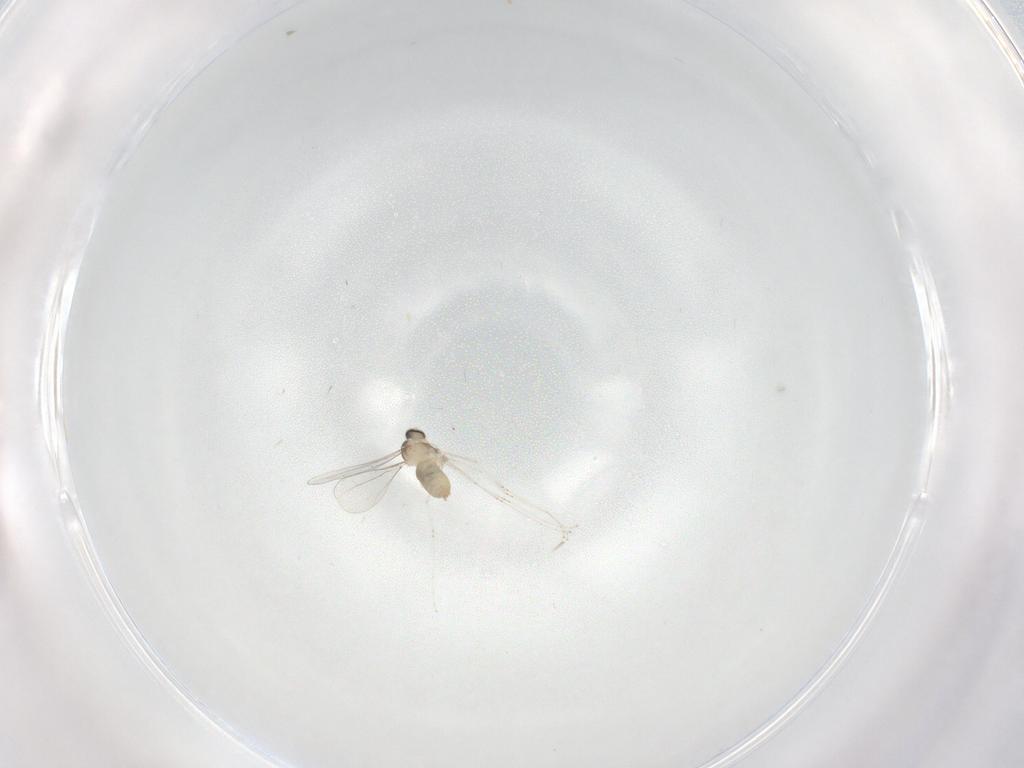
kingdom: Animalia
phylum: Arthropoda
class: Insecta
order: Diptera
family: Cecidomyiidae
